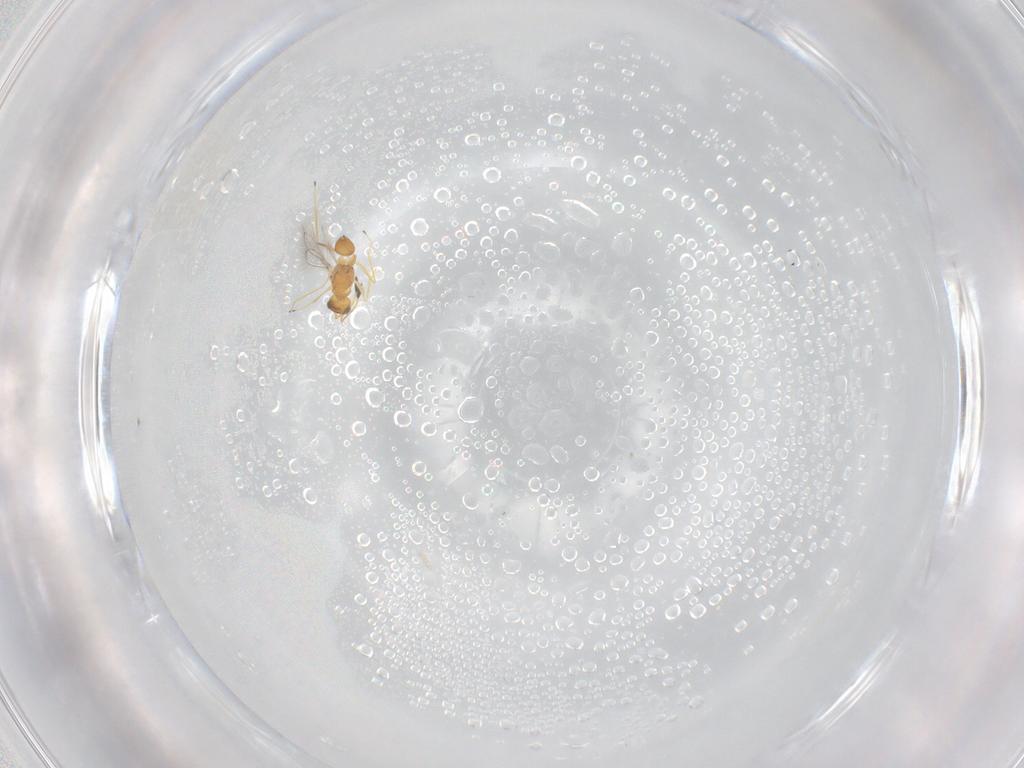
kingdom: Animalia
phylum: Arthropoda
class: Insecta
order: Hymenoptera
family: Mymaridae
